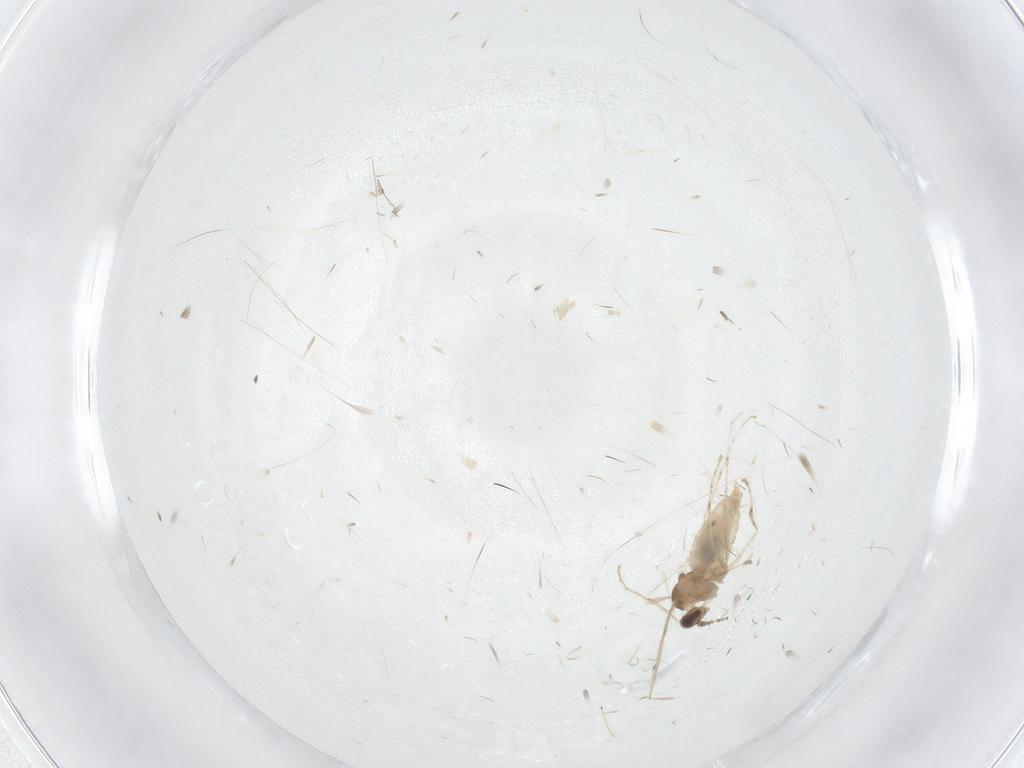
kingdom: Animalia
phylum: Arthropoda
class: Insecta
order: Diptera
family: Cecidomyiidae
